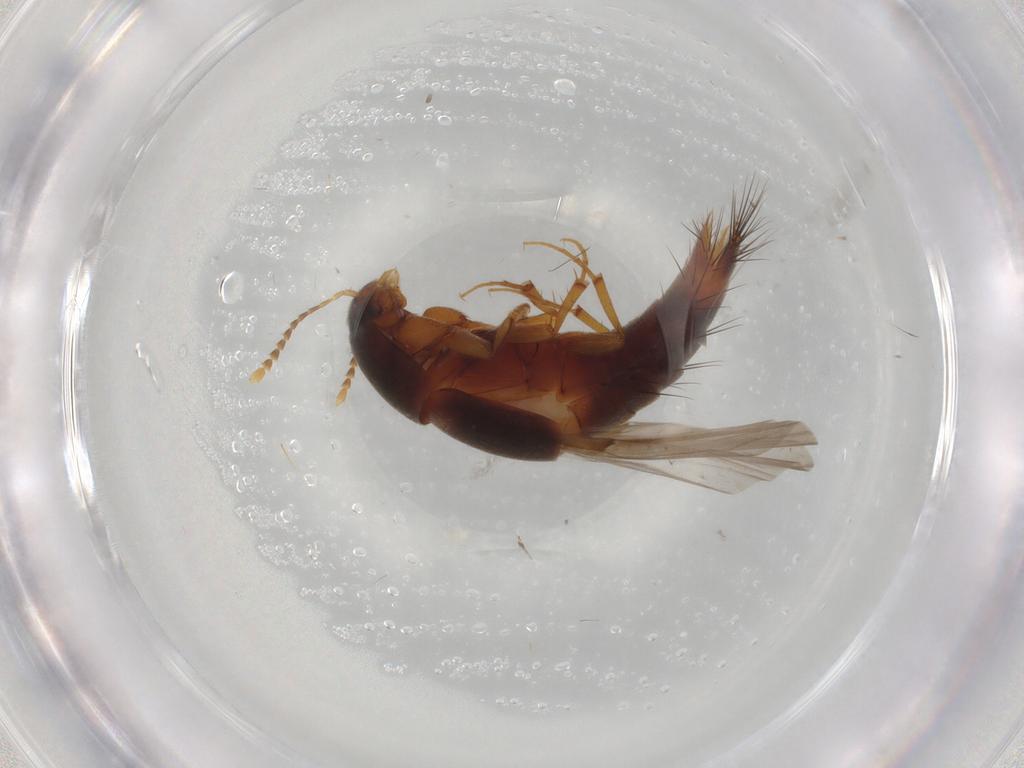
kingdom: Animalia
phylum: Arthropoda
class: Insecta
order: Coleoptera
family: Staphylinidae
